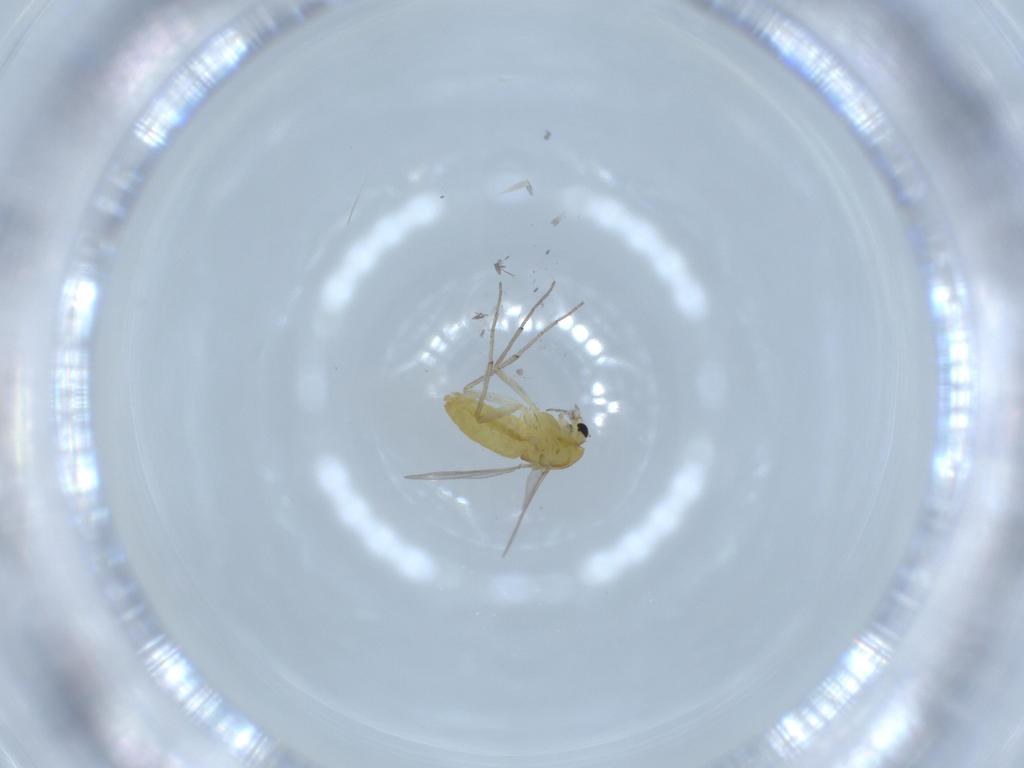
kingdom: Animalia
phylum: Arthropoda
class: Insecta
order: Diptera
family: Chironomidae
